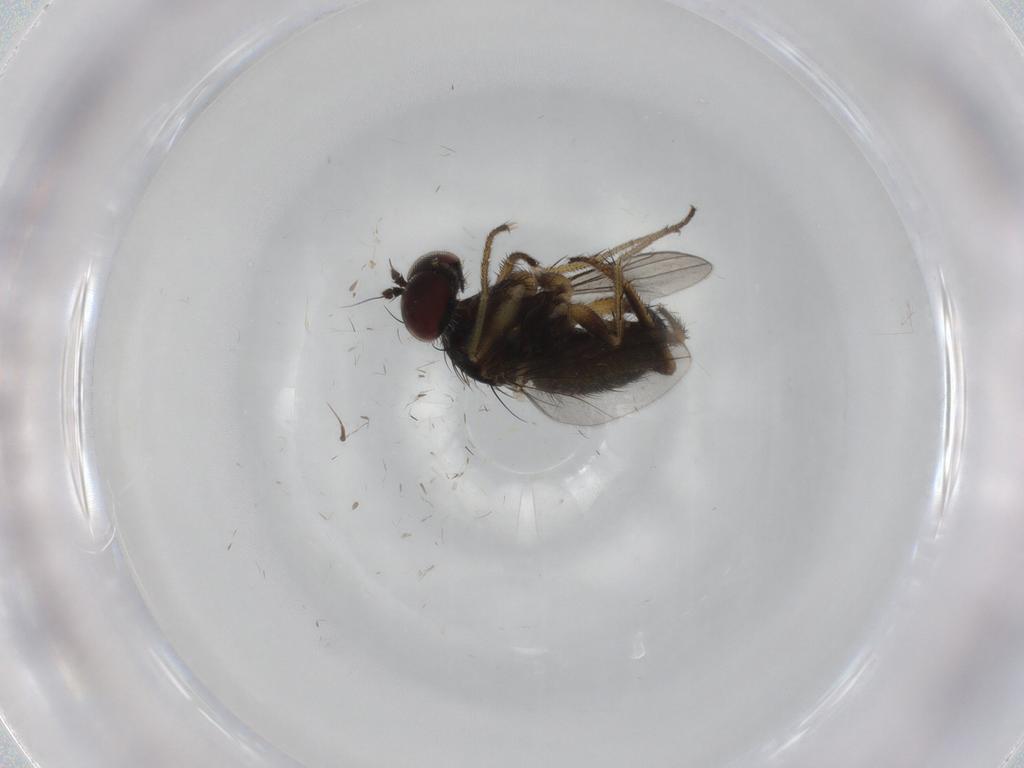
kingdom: Animalia
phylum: Arthropoda
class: Insecta
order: Diptera
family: Dolichopodidae
